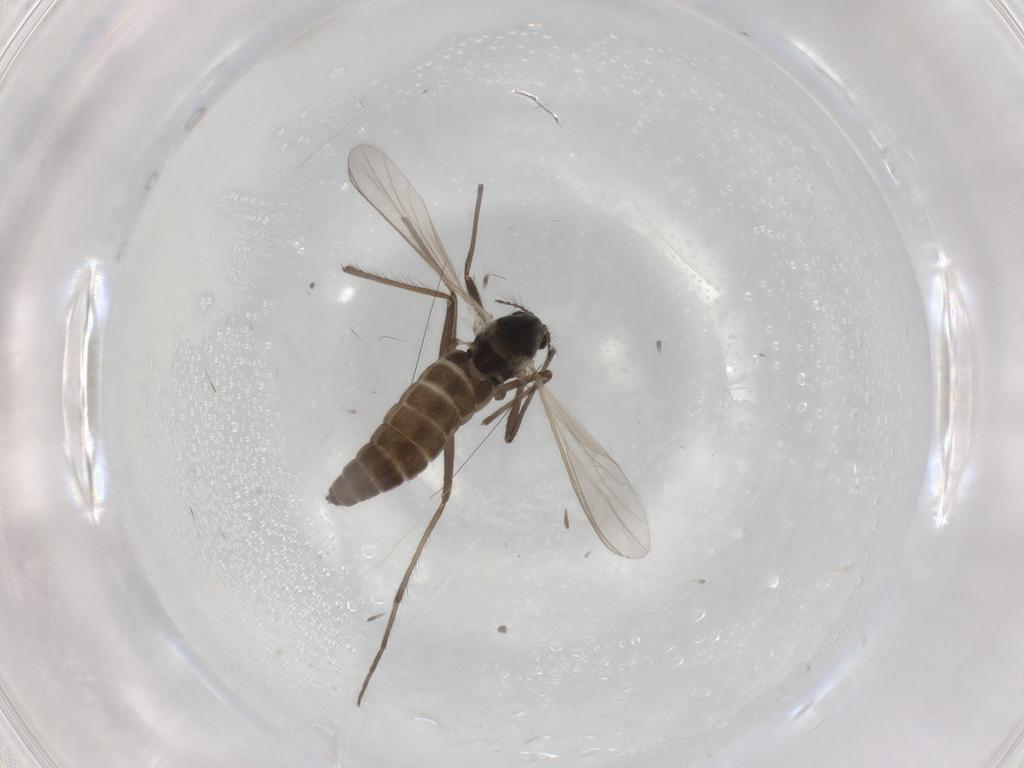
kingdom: Animalia
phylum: Arthropoda
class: Insecta
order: Diptera
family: Chironomidae
